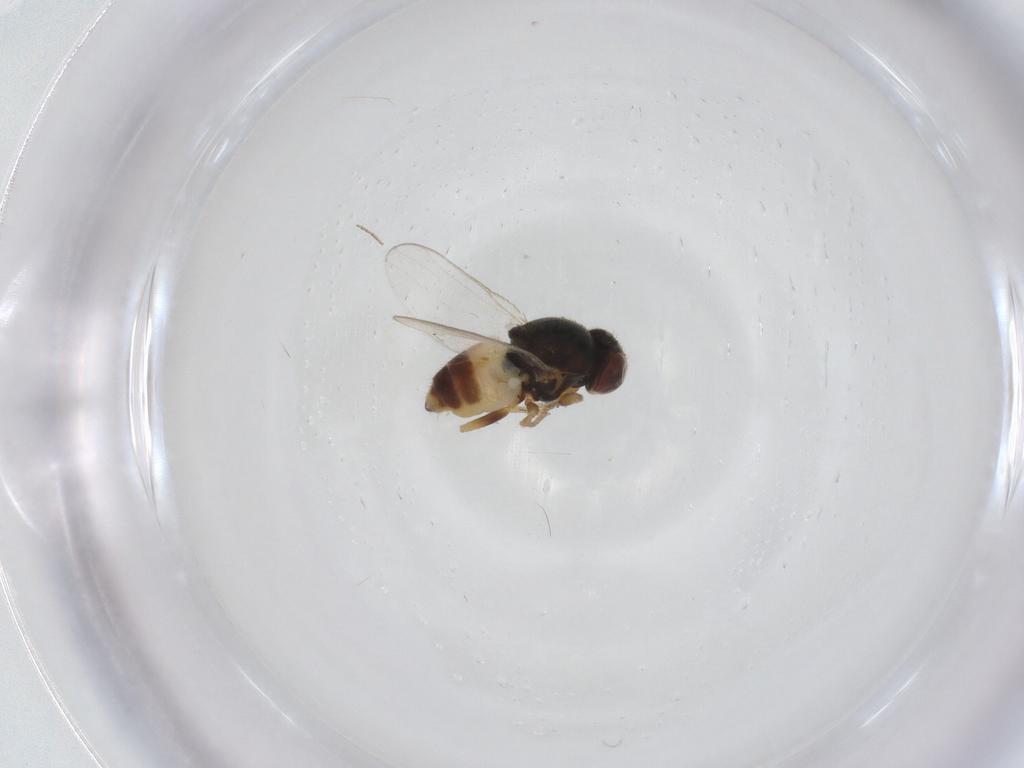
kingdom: Animalia
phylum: Arthropoda
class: Insecta
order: Diptera
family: Chloropidae
